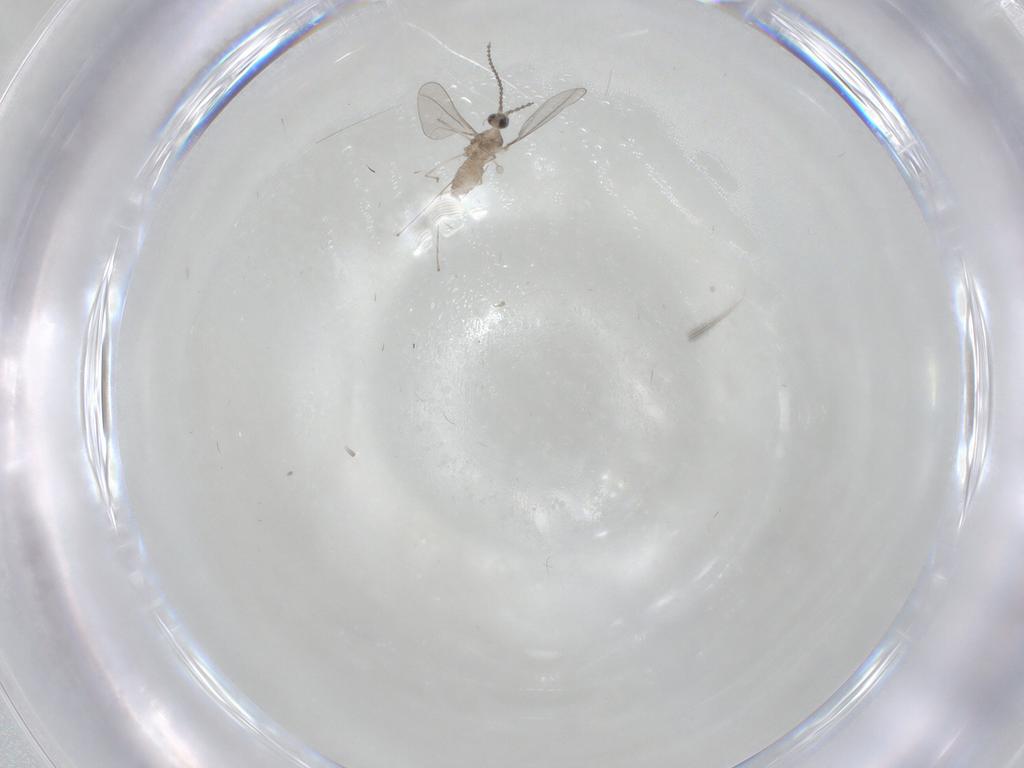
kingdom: Animalia
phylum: Arthropoda
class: Insecta
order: Diptera
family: Cecidomyiidae
